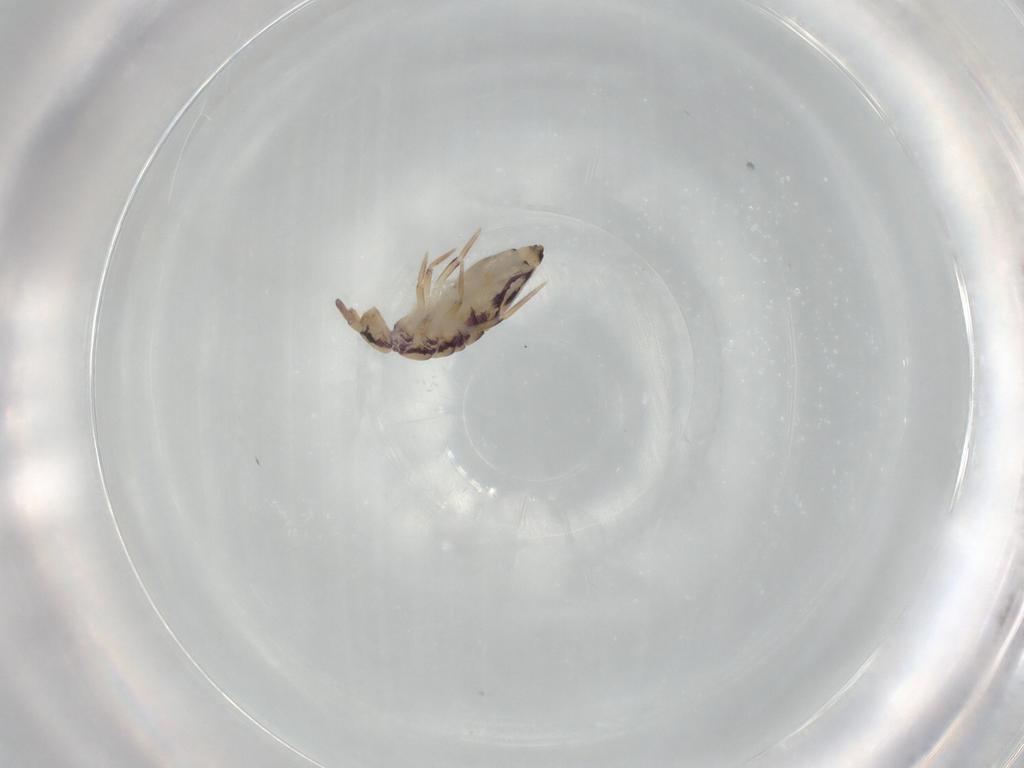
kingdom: Animalia
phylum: Arthropoda
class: Collembola
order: Entomobryomorpha
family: Entomobryidae
